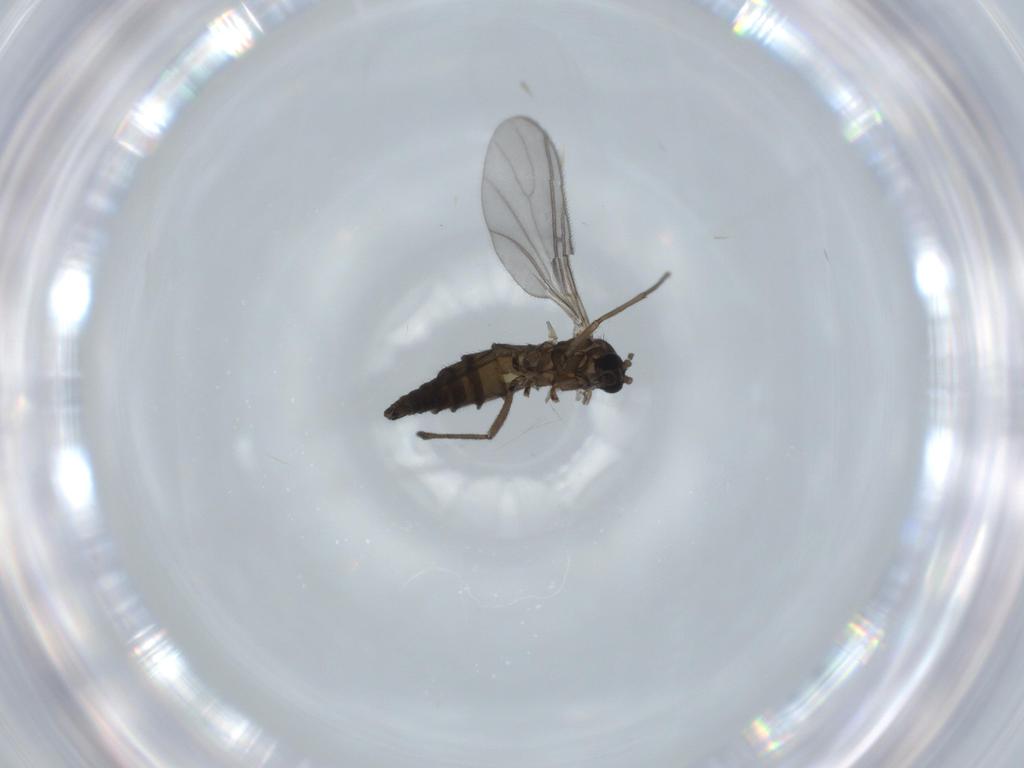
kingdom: Animalia
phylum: Arthropoda
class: Insecta
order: Diptera
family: Sciaridae
